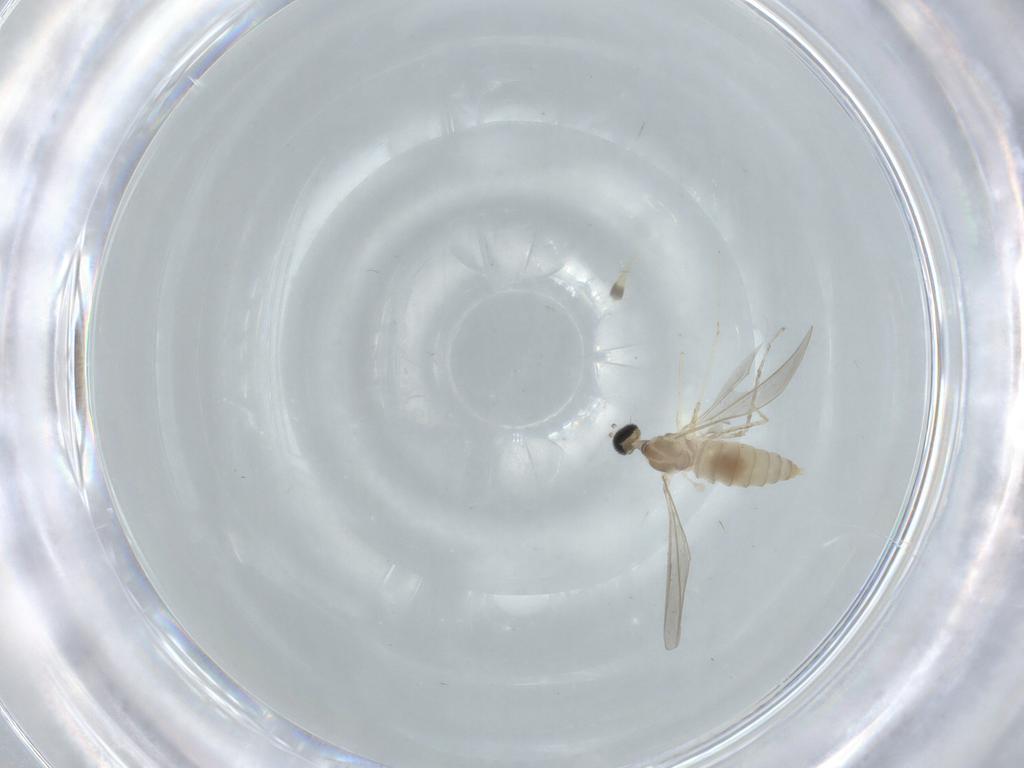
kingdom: Animalia
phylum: Arthropoda
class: Insecta
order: Diptera
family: Cecidomyiidae
